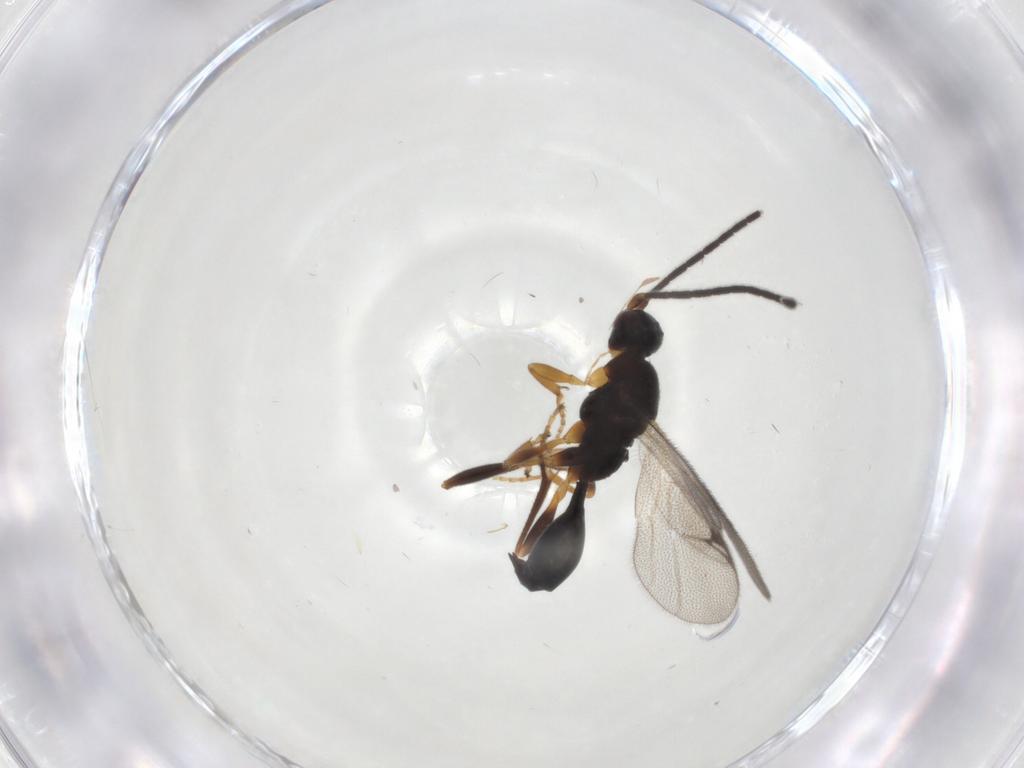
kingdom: Animalia
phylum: Arthropoda
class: Insecta
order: Hymenoptera
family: Proctotrupidae
